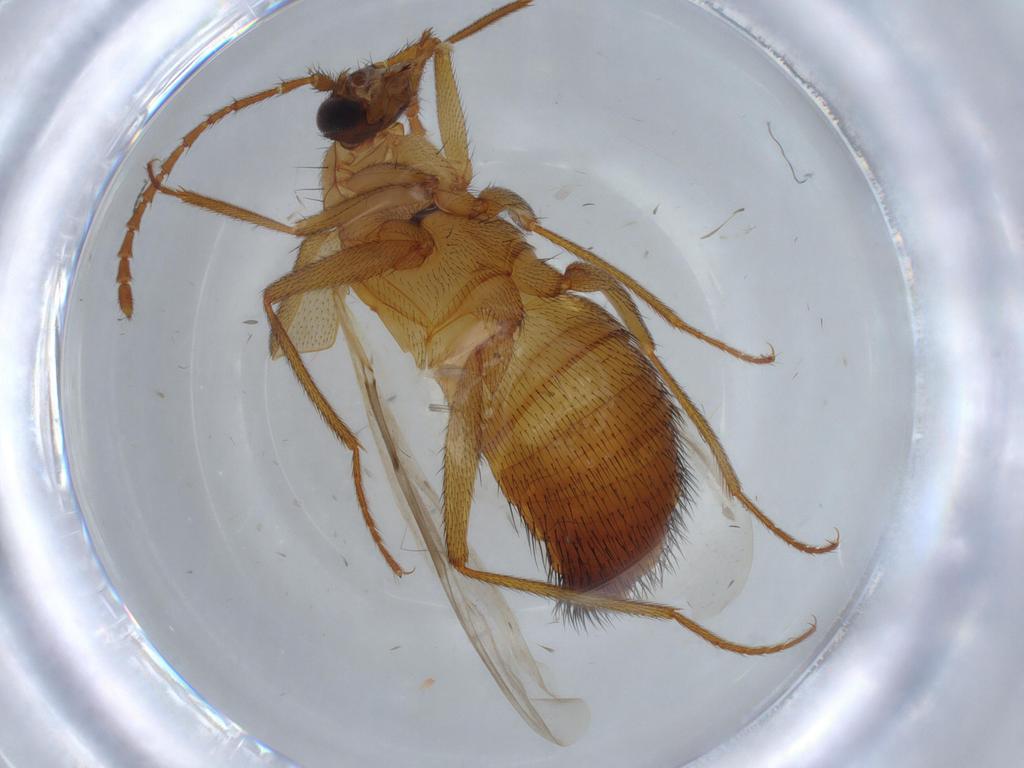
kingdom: Animalia
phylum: Arthropoda
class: Insecta
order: Coleoptera
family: Staphylinidae
